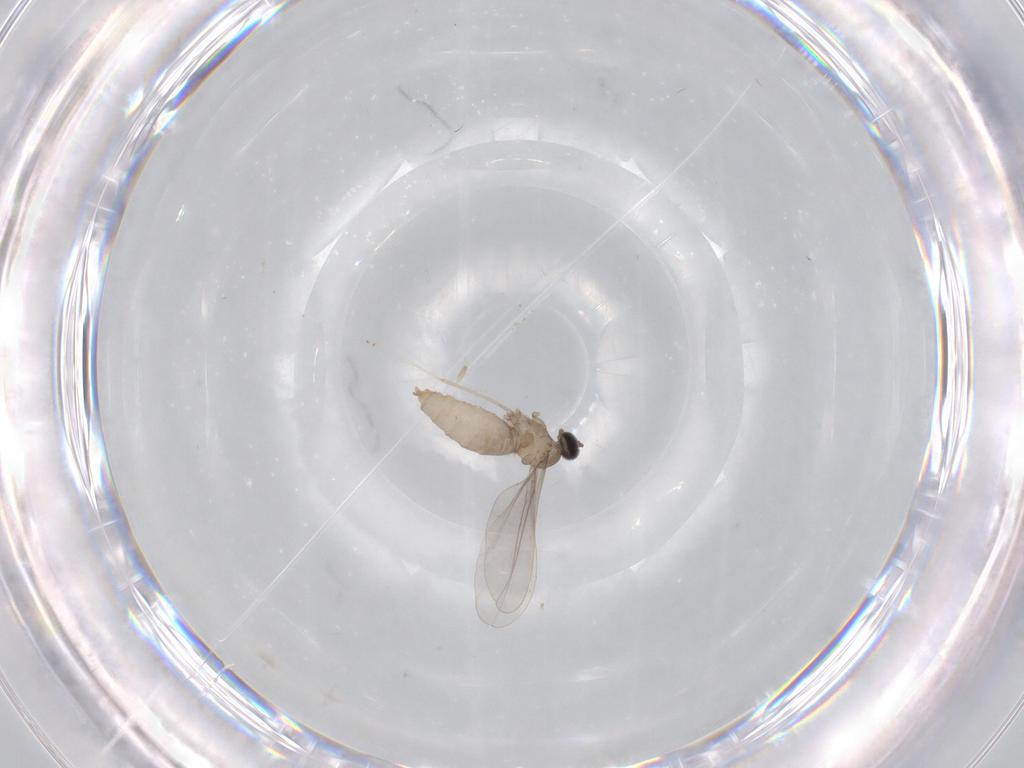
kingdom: Animalia
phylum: Arthropoda
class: Insecta
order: Diptera
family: Cecidomyiidae
